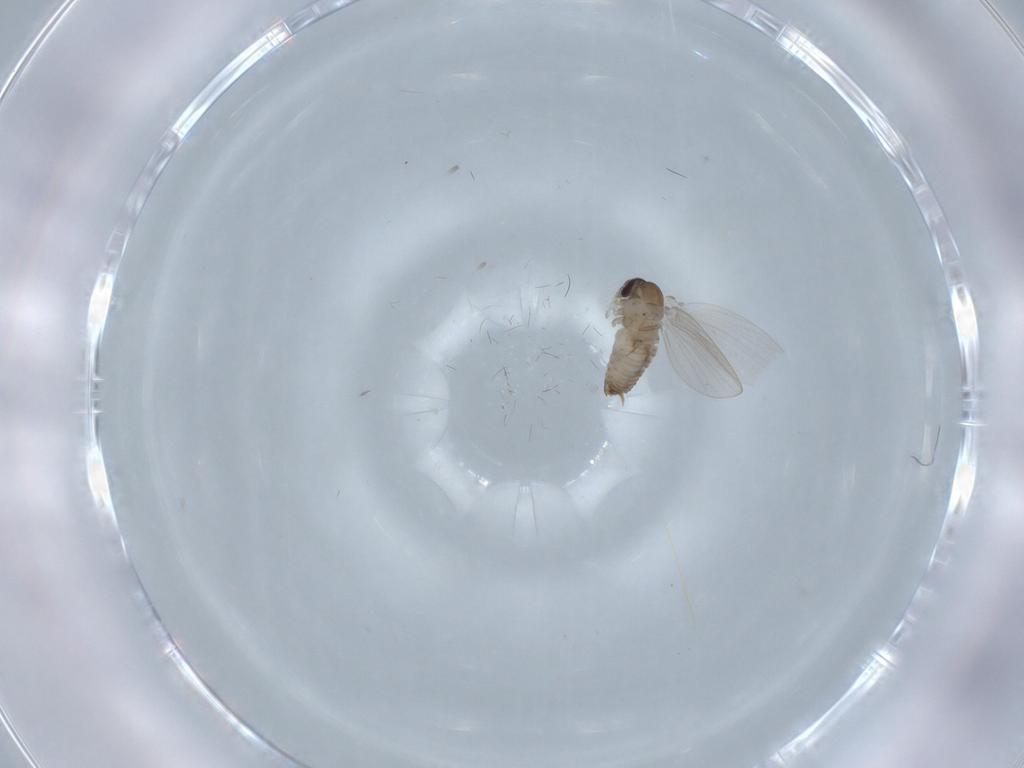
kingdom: Animalia
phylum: Arthropoda
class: Insecta
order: Diptera
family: Psychodidae
